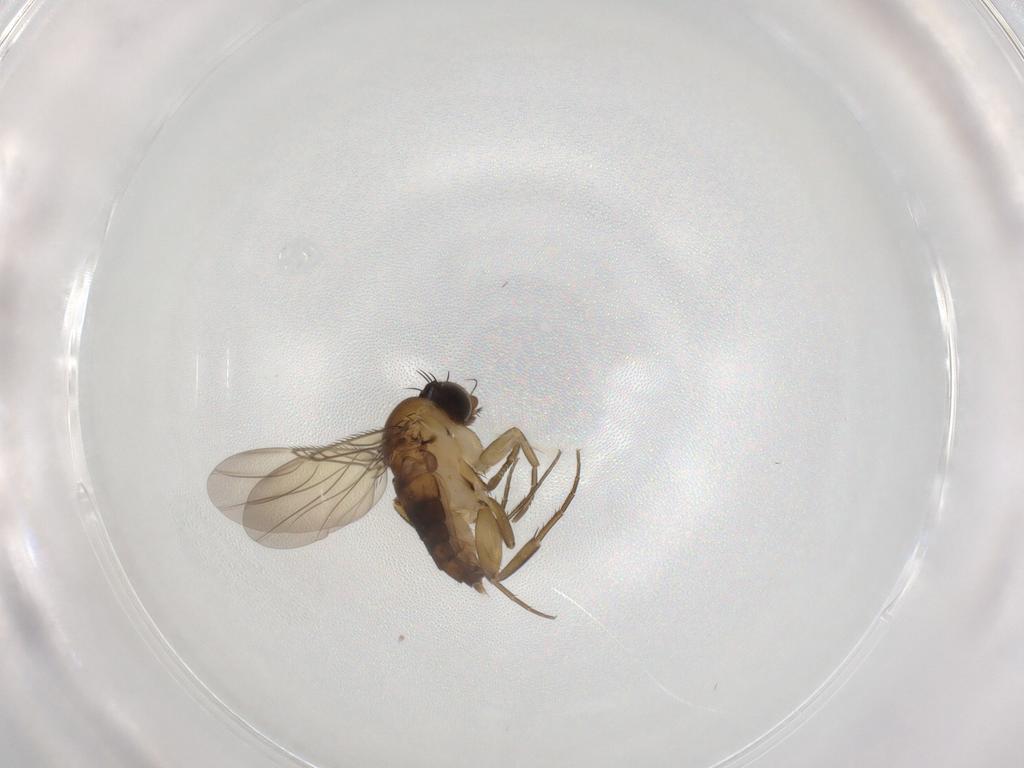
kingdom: Animalia
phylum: Arthropoda
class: Insecta
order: Diptera
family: Phoridae
